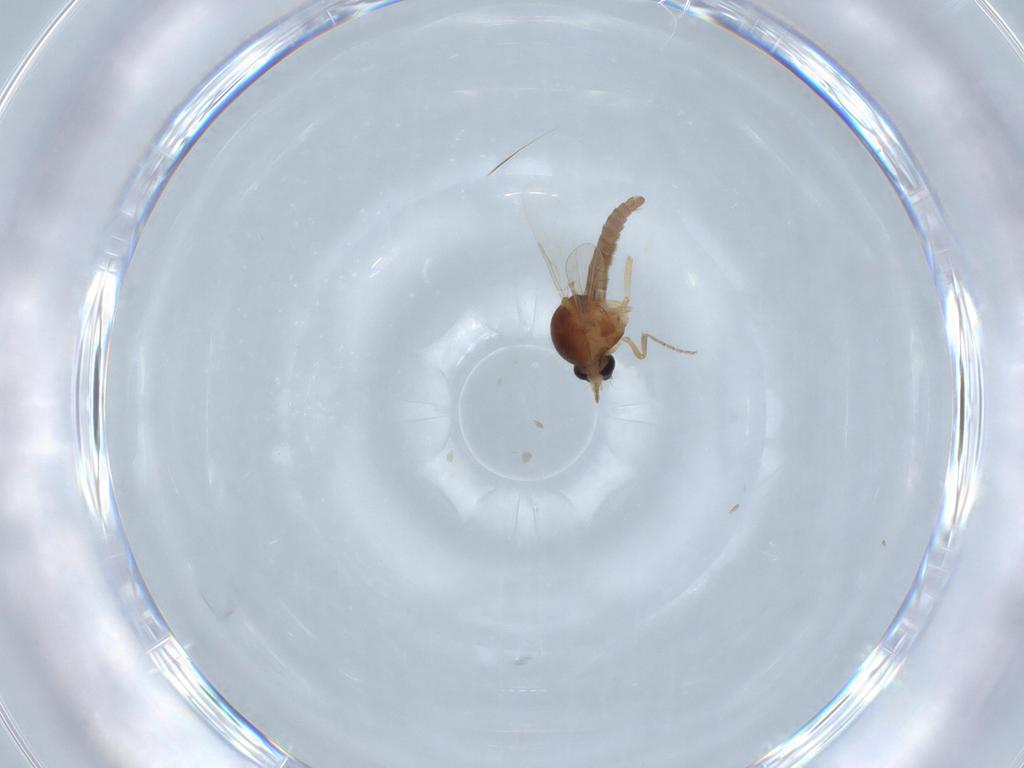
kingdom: Animalia
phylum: Arthropoda
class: Insecta
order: Diptera
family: Ceratopogonidae
